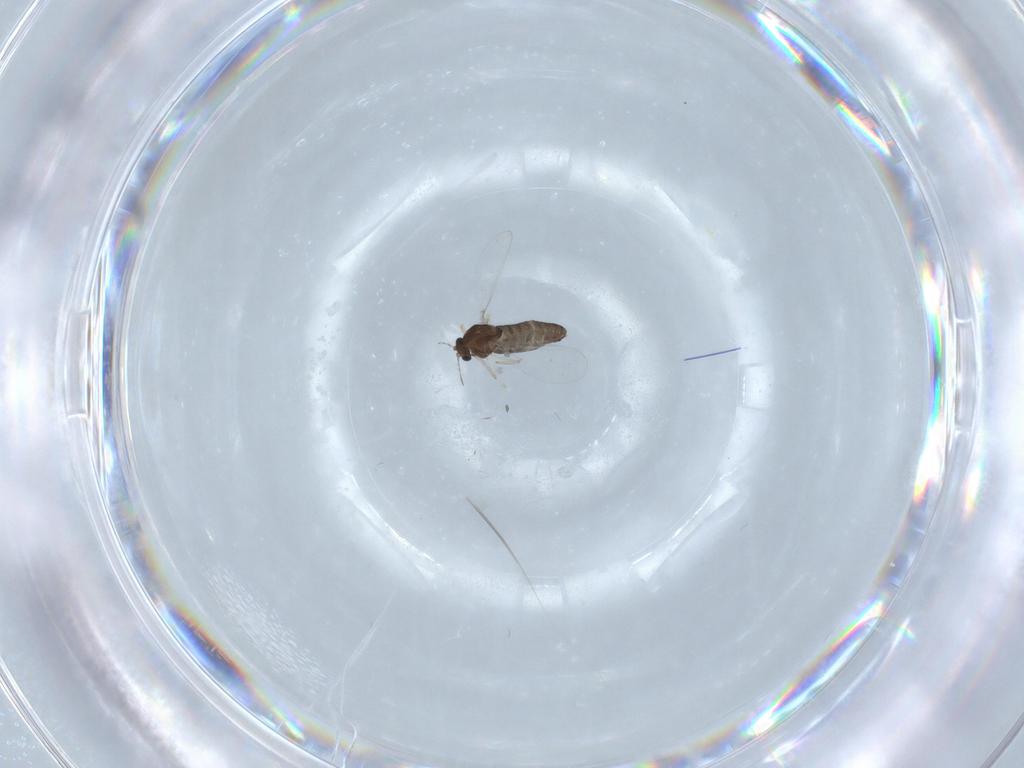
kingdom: Animalia
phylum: Arthropoda
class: Insecta
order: Diptera
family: Chironomidae
